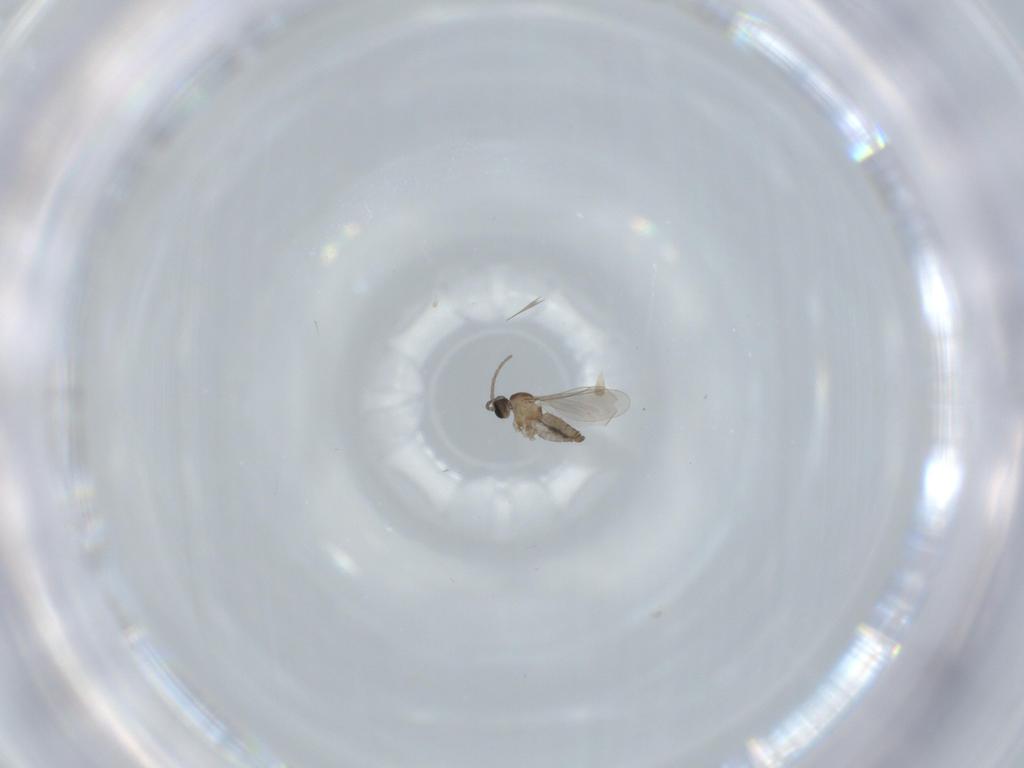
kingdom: Animalia
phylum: Arthropoda
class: Insecta
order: Diptera
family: Cecidomyiidae
